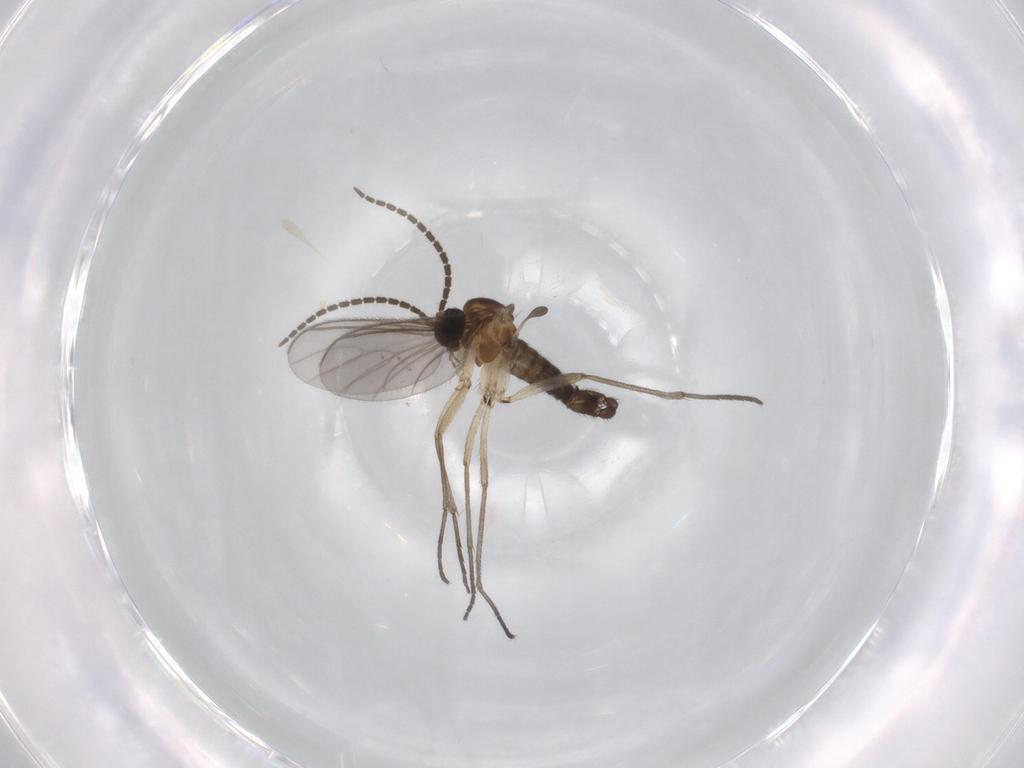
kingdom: Animalia
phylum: Arthropoda
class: Insecta
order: Diptera
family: Sciaridae
